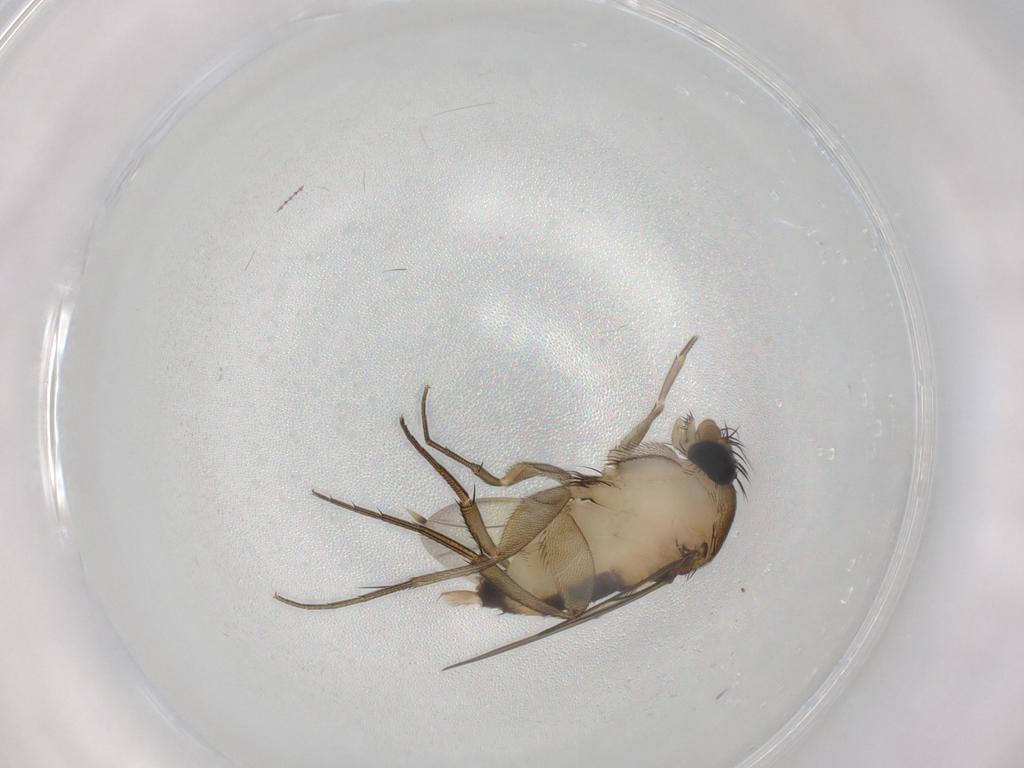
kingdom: Animalia
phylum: Arthropoda
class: Insecta
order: Diptera
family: Phoridae
